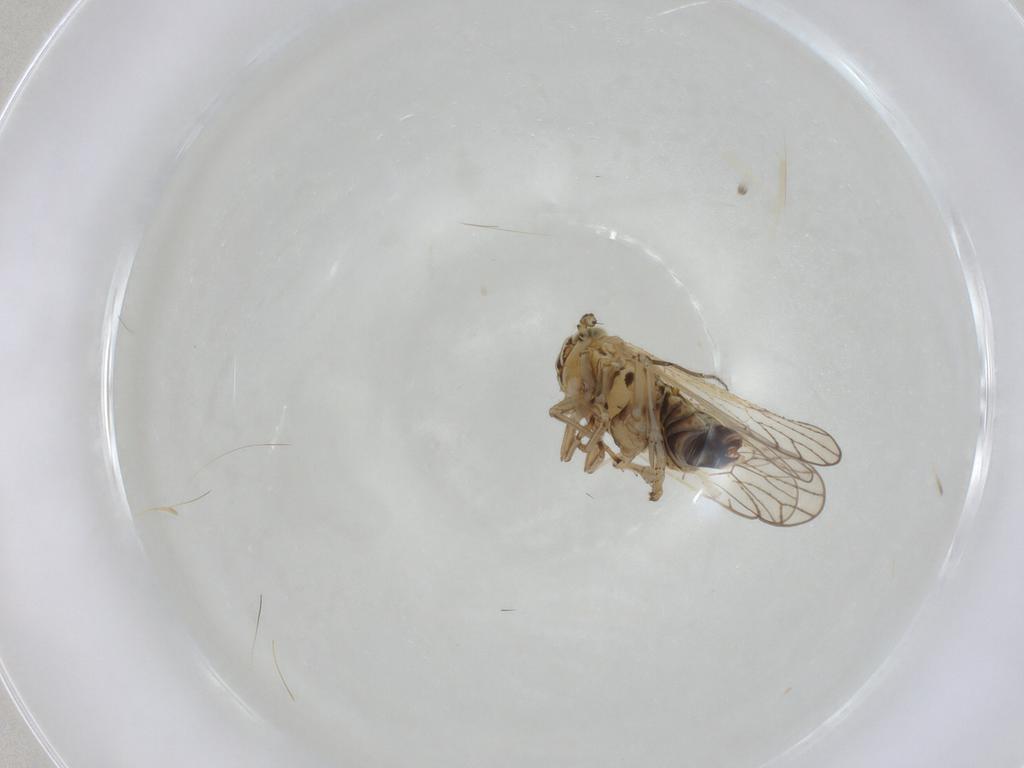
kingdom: Animalia
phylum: Arthropoda
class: Insecta
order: Diptera
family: Ceratopogonidae
